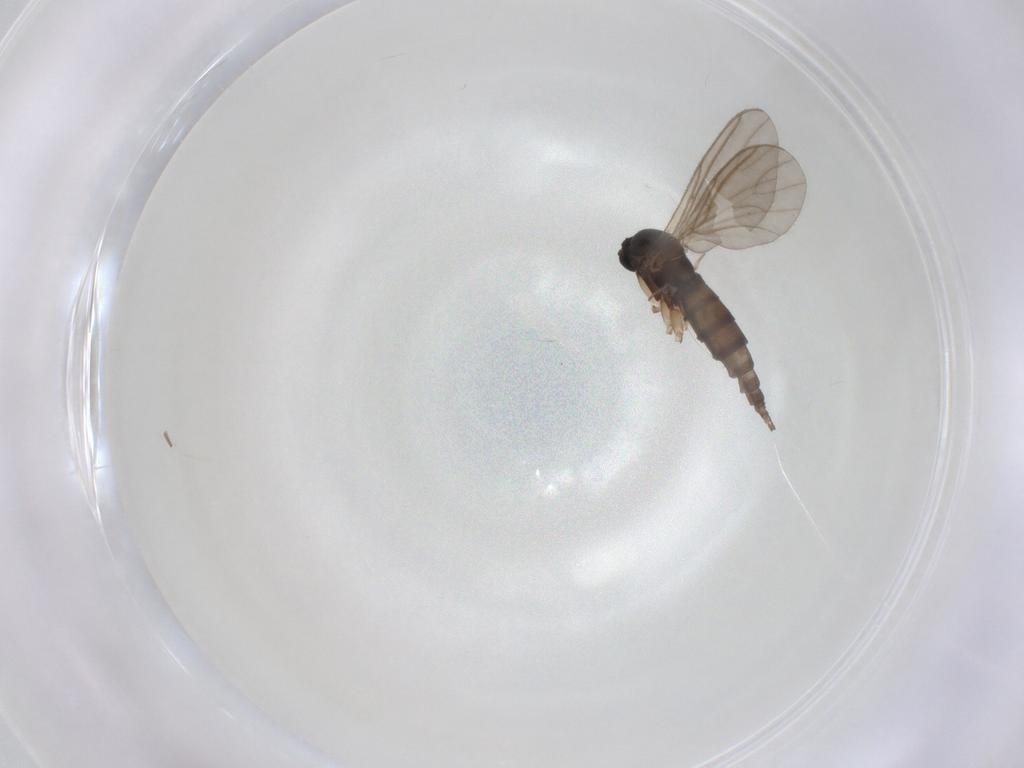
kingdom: Animalia
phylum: Arthropoda
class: Insecta
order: Diptera
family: Sciaridae
